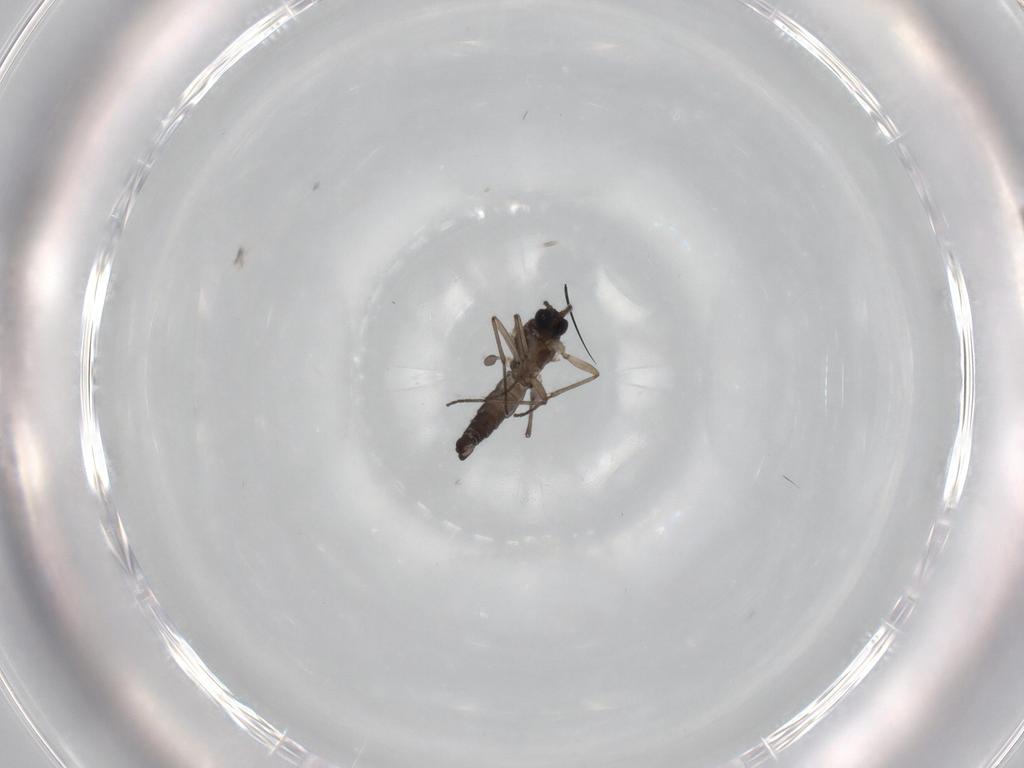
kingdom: Animalia
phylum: Arthropoda
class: Insecta
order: Diptera
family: Sciaridae
